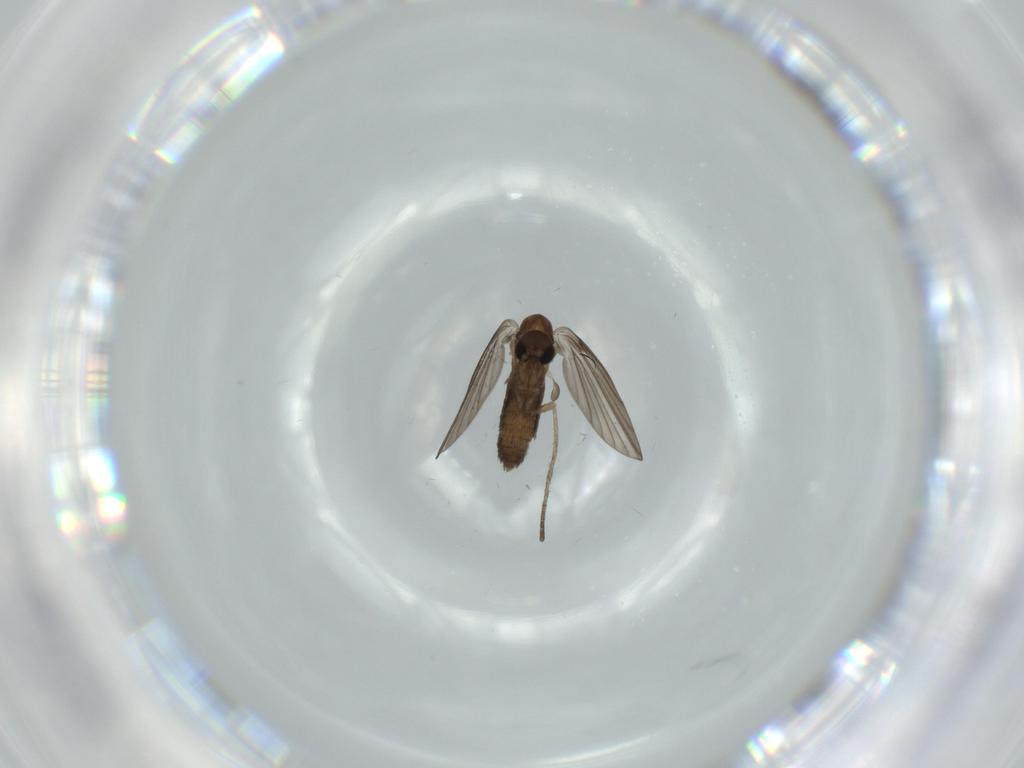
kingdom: Animalia
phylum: Arthropoda
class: Insecta
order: Diptera
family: Psychodidae
